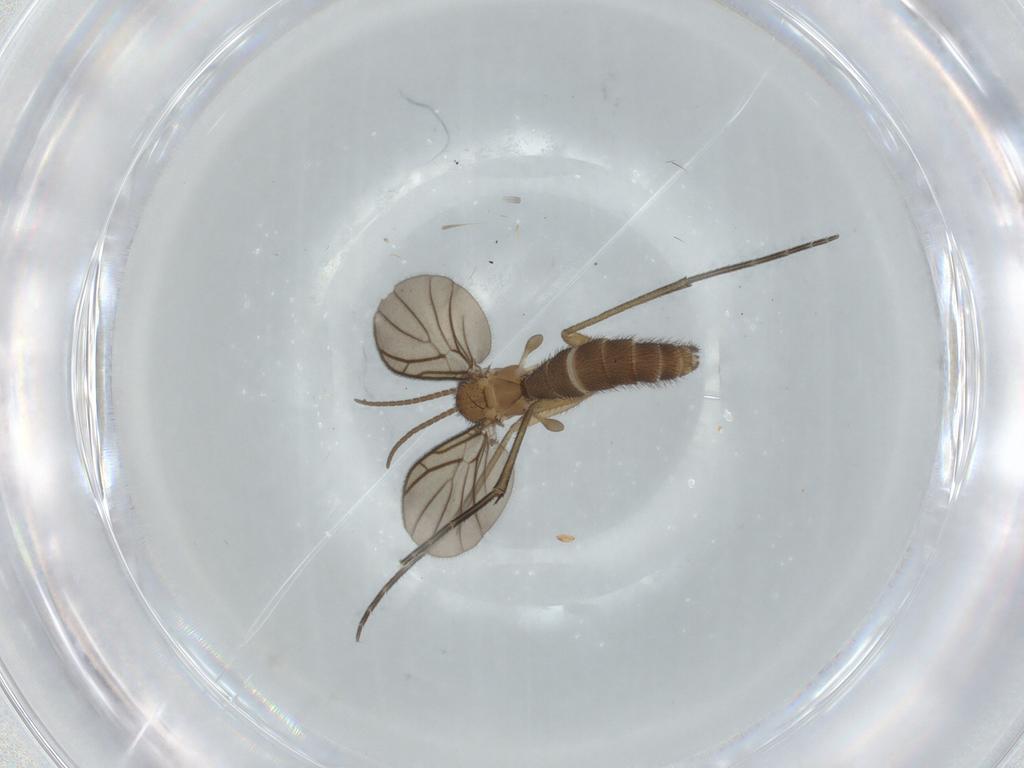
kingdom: Animalia
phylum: Arthropoda
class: Insecta
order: Diptera
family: Keroplatidae
